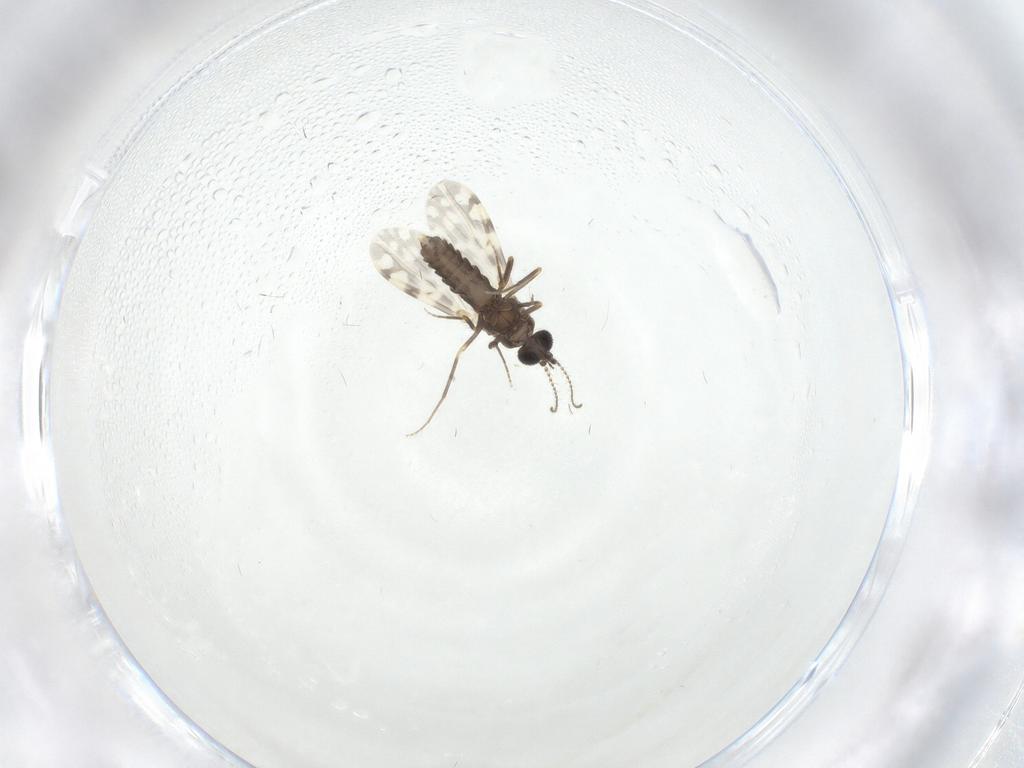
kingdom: Animalia
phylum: Arthropoda
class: Insecta
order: Diptera
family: Ceratopogonidae
